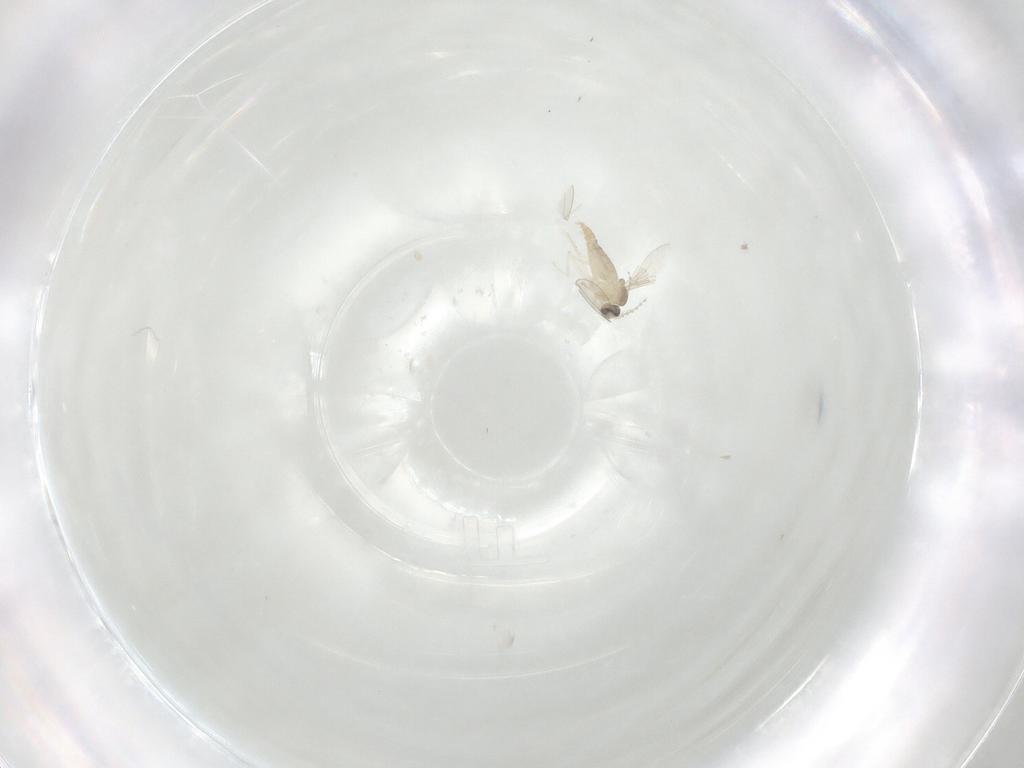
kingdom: Animalia
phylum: Arthropoda
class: Insecta
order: Diptera
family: Cecidomyiidae
